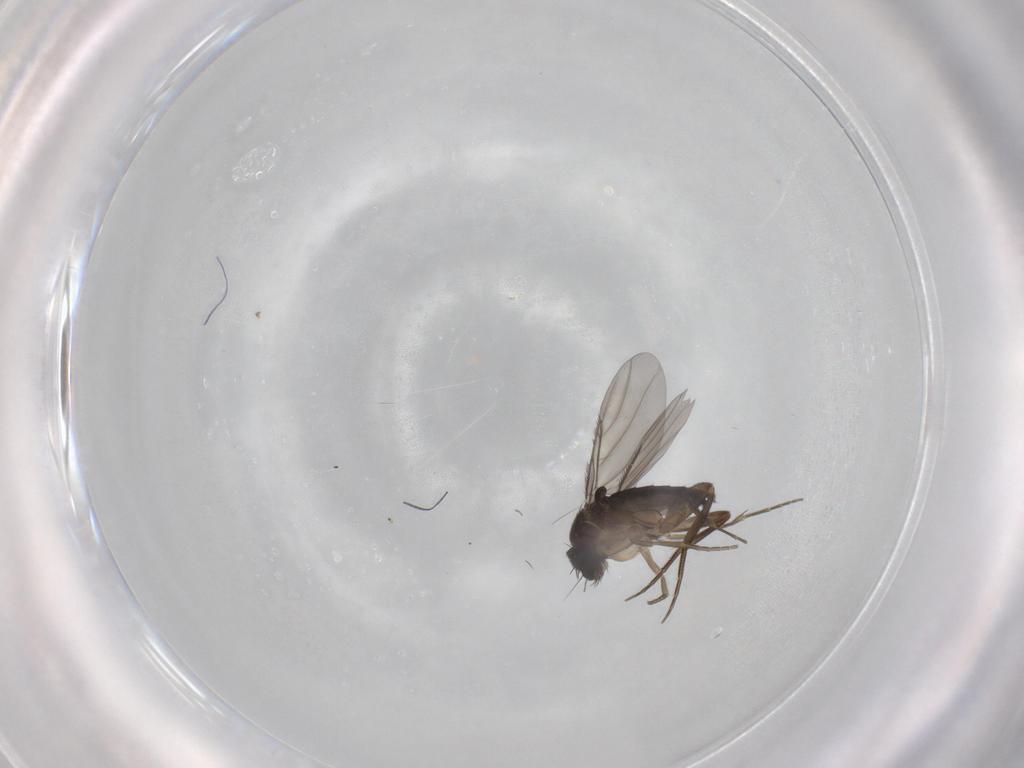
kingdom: Animalia
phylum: Arthropoda
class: Insecta
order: Diptera
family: Phoridae
